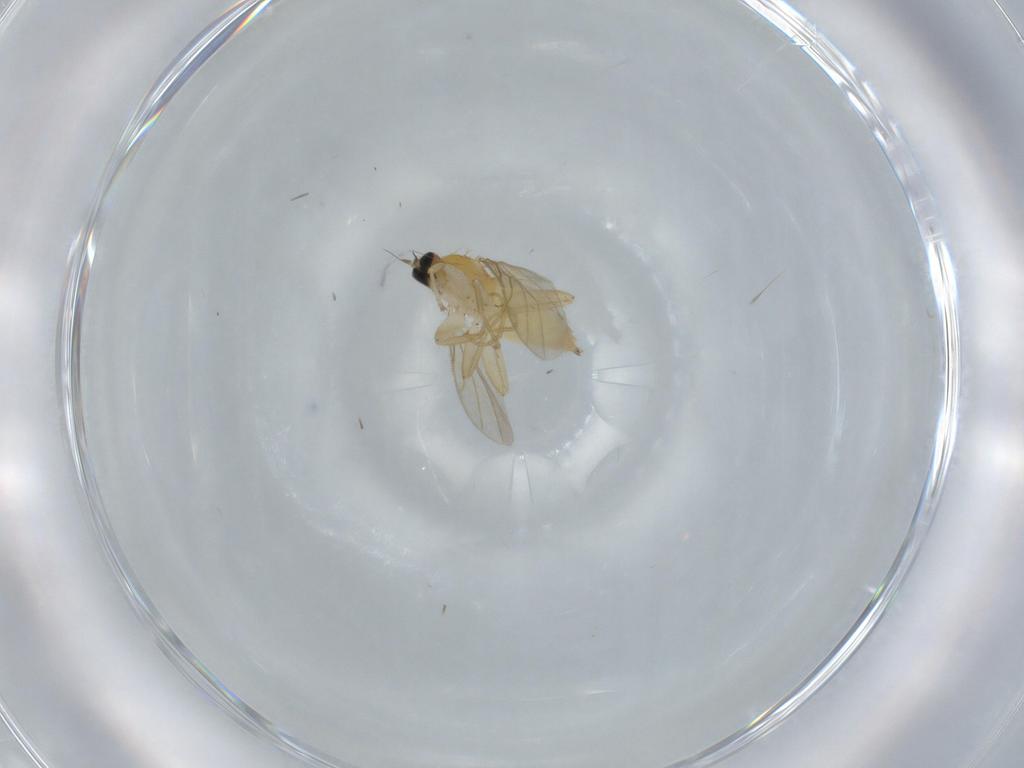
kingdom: Animalia
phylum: Arthropoda
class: Insecta
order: Diptera
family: Hybotidae
